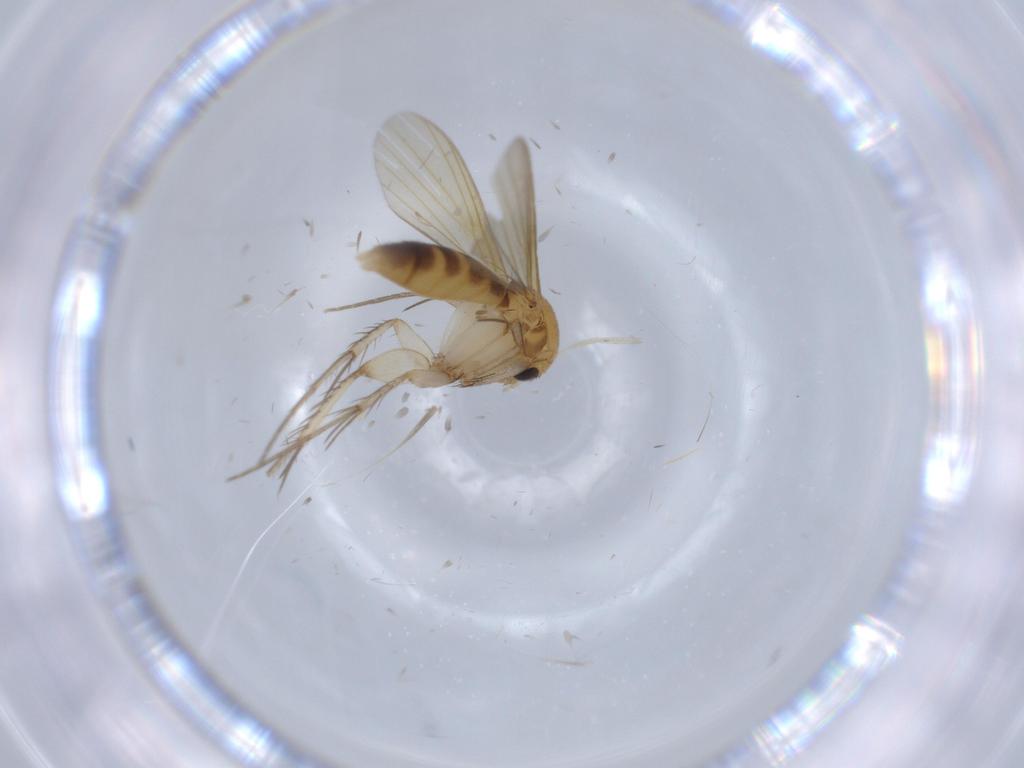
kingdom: Animalia
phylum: Arthropoda
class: Insecta
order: Diptera
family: Mycetophilidae
